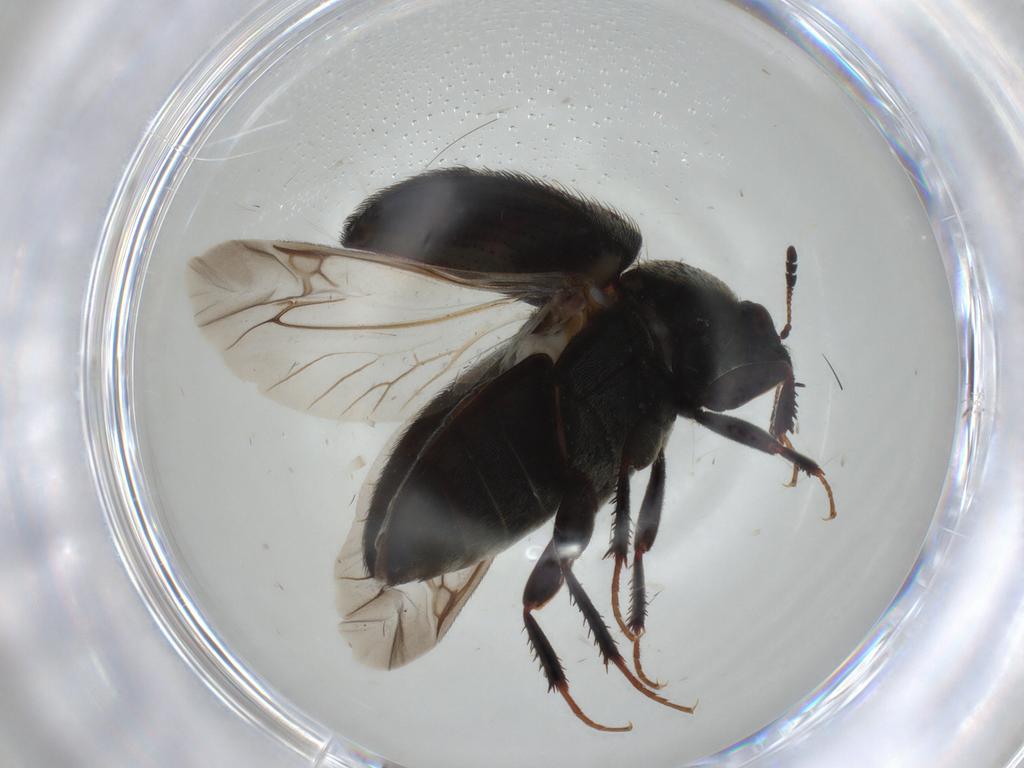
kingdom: Animalia
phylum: Arthropoda
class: Insecta
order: Coleoptera
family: Dermestidae
